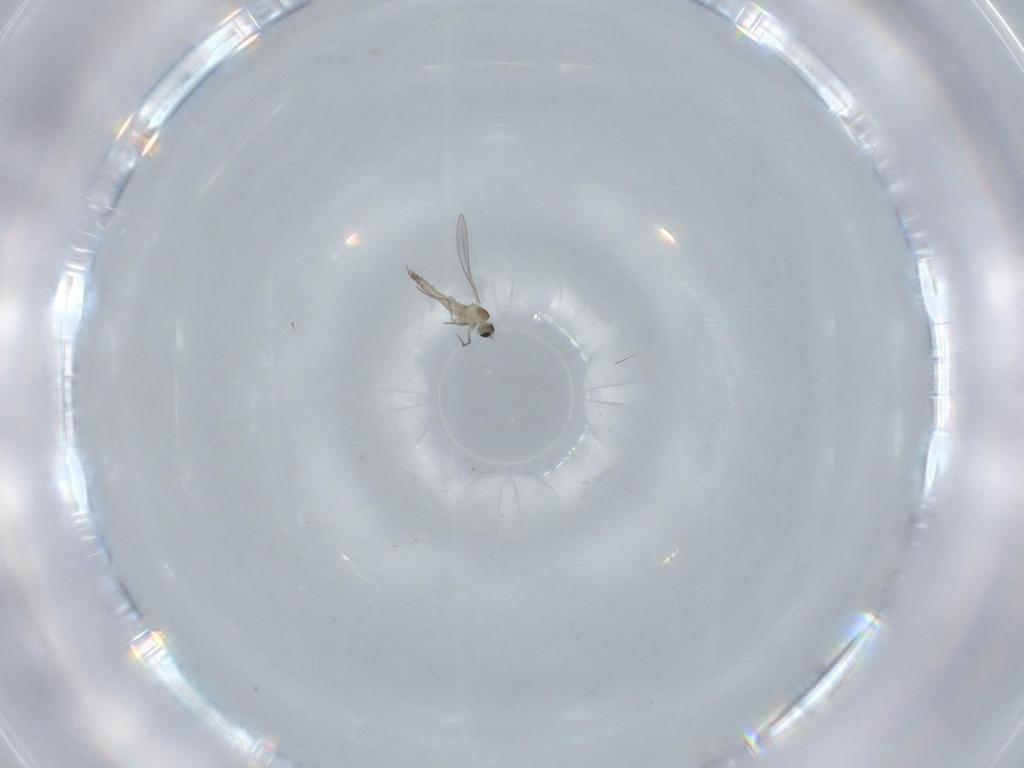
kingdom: Animalia
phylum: Arthropoda
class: Insecta
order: Diptera
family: Cecidomyiidae
